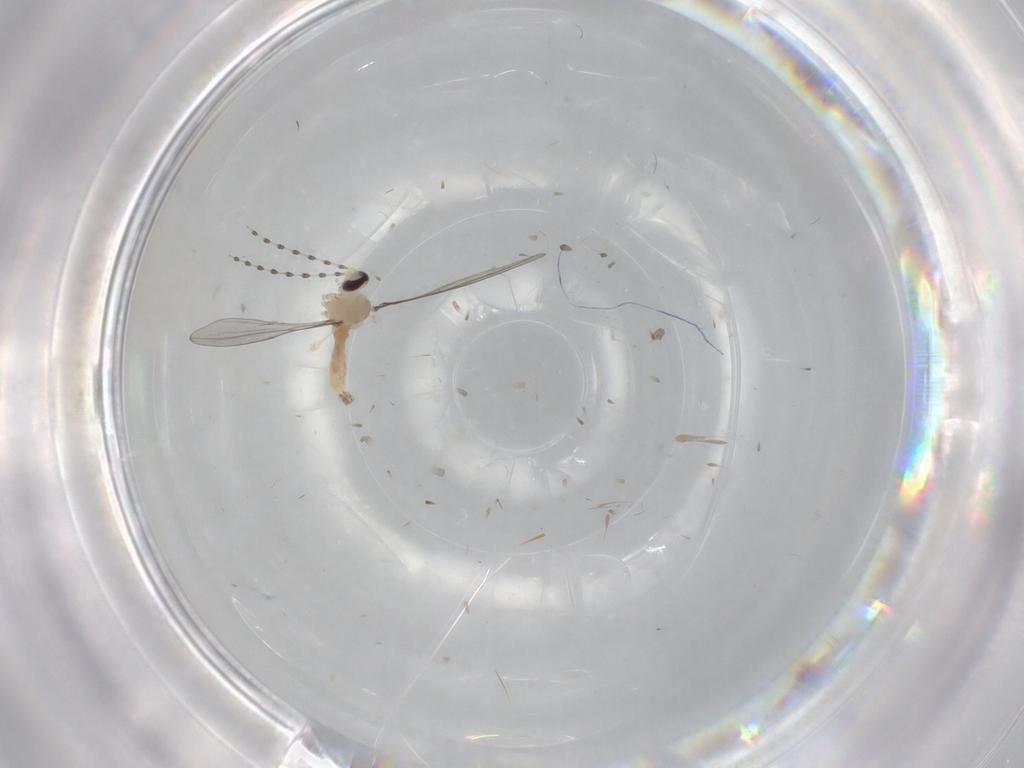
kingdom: Animalia
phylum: Arthropoda
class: Insecta
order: Diptera
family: Cecidomyiidae
